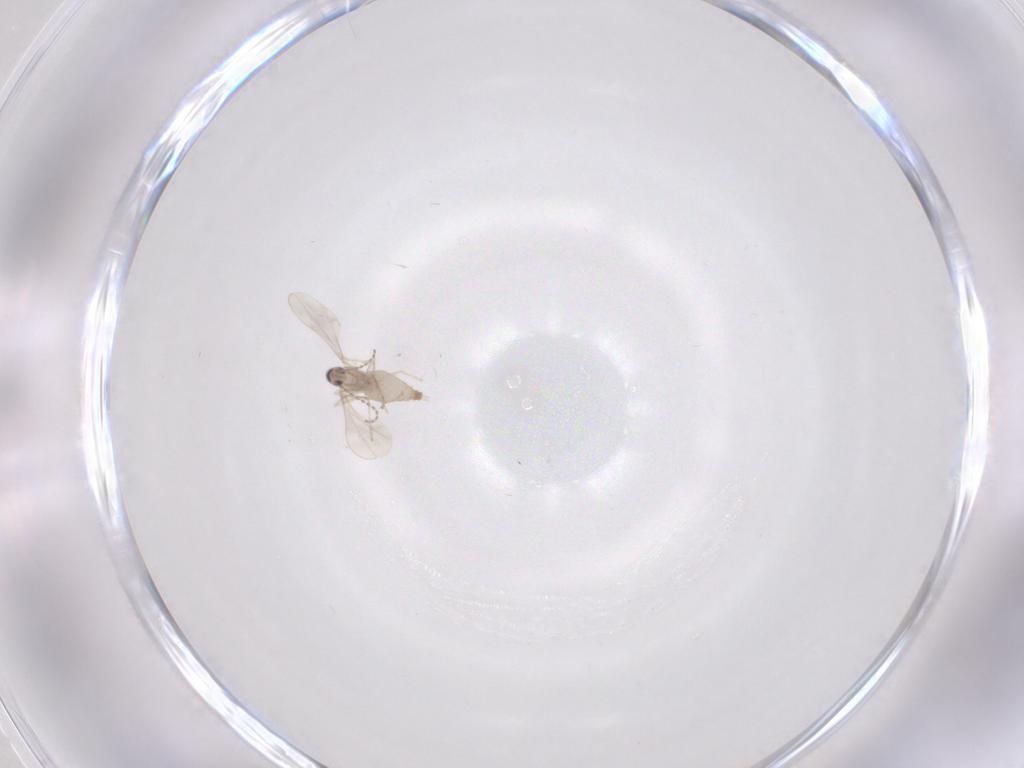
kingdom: Animalia
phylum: Arthropoda
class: Insecta
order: Diptera
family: Cecidomyiidae
